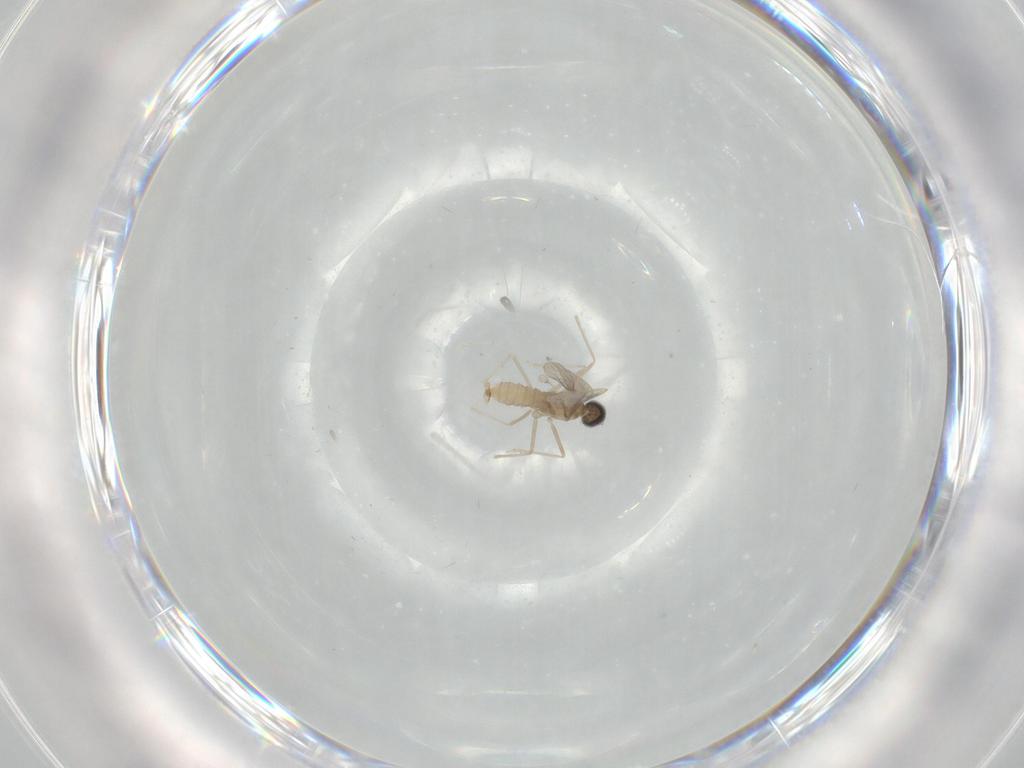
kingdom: Animalia
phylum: Arthropoda
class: Insecta
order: Diptera
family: Cecidomyiidae
